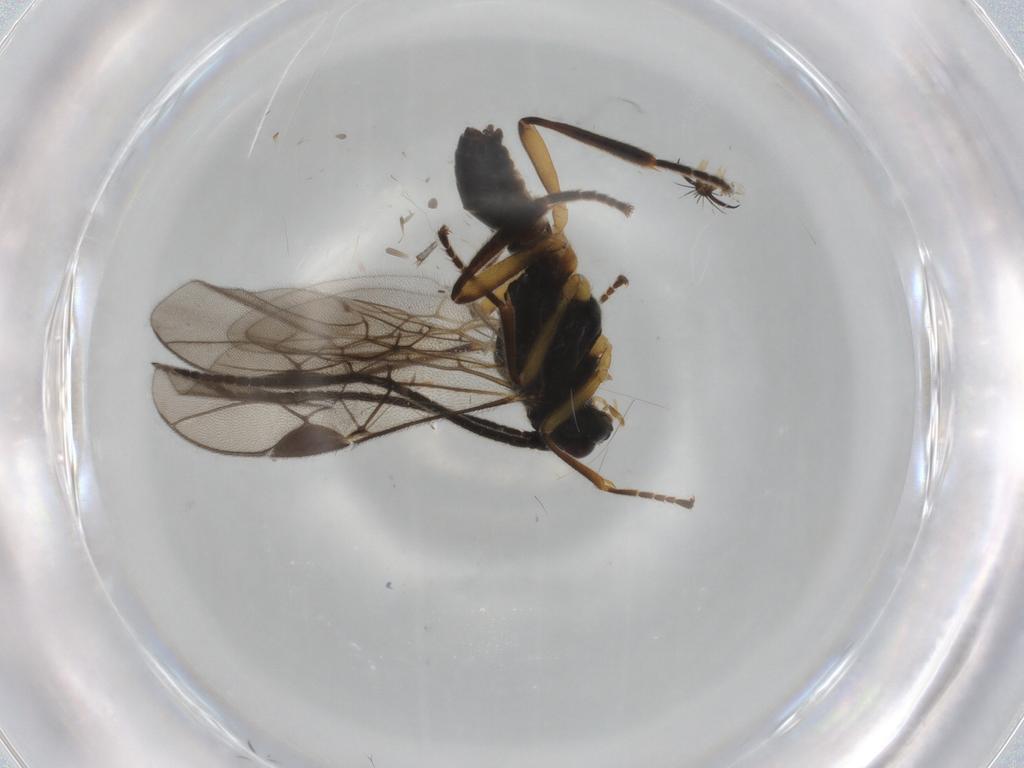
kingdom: Animalia
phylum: Arthropoda
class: Insecta
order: Hymenoptera
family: Braconidae
